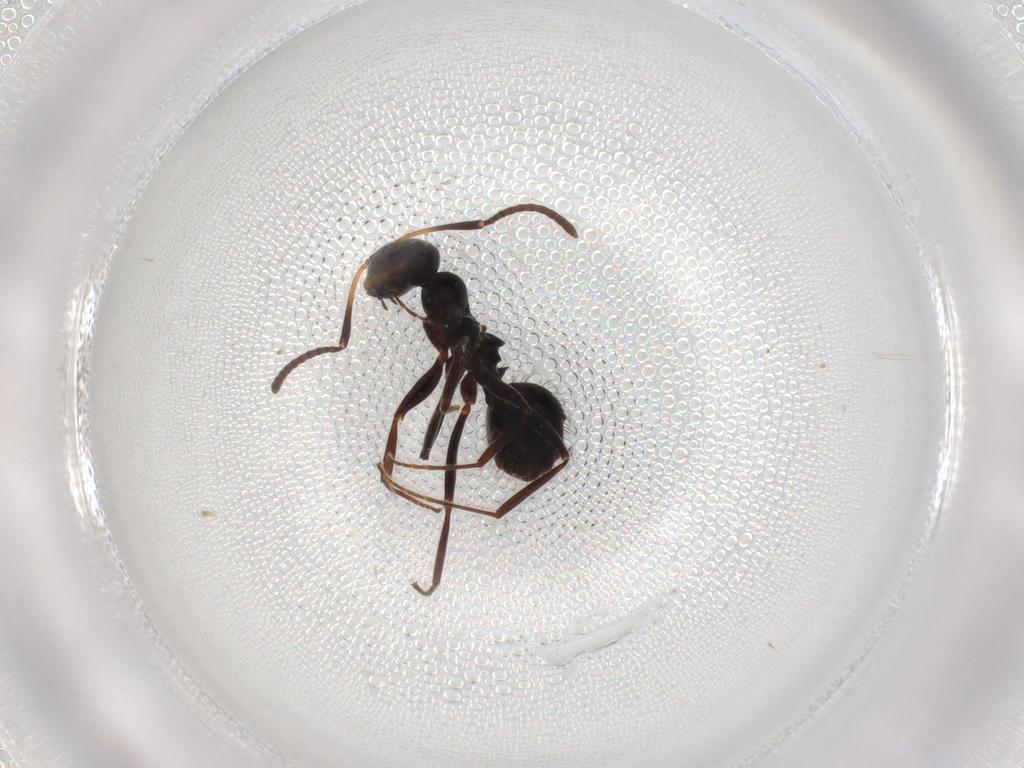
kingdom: Animalia
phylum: Arthropoda
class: Insecta
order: Hymenoptera
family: Formicidae
